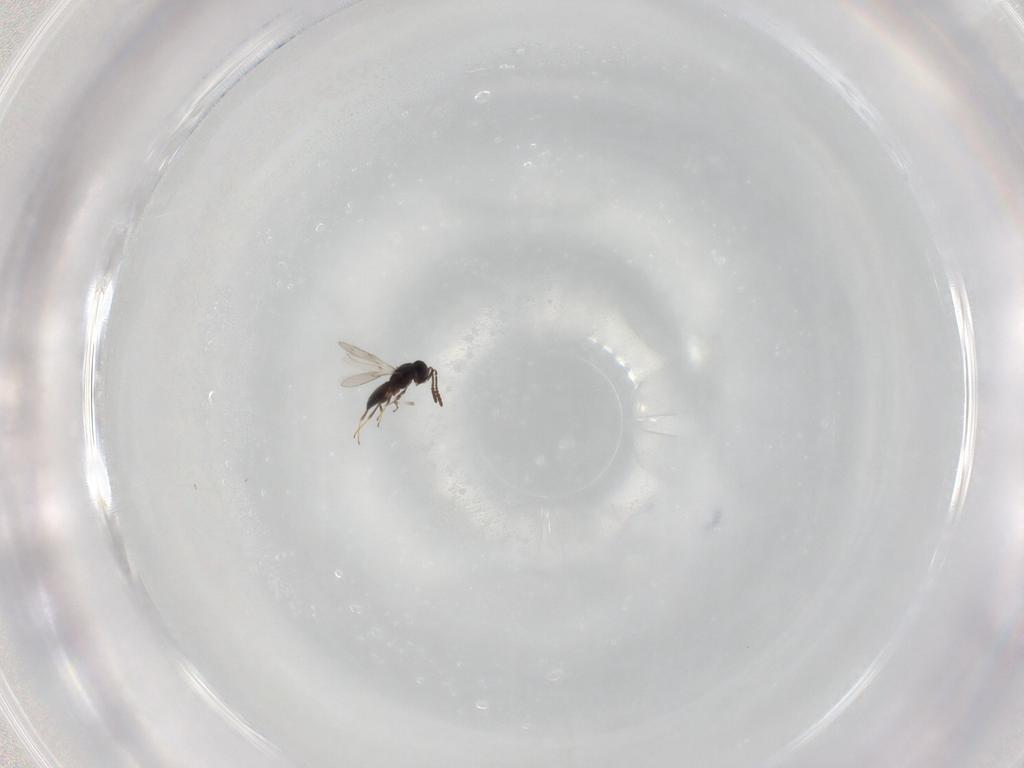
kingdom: Animalia
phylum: Arthropoda
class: Insecta
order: Hymenoptera
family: Scelionidae
